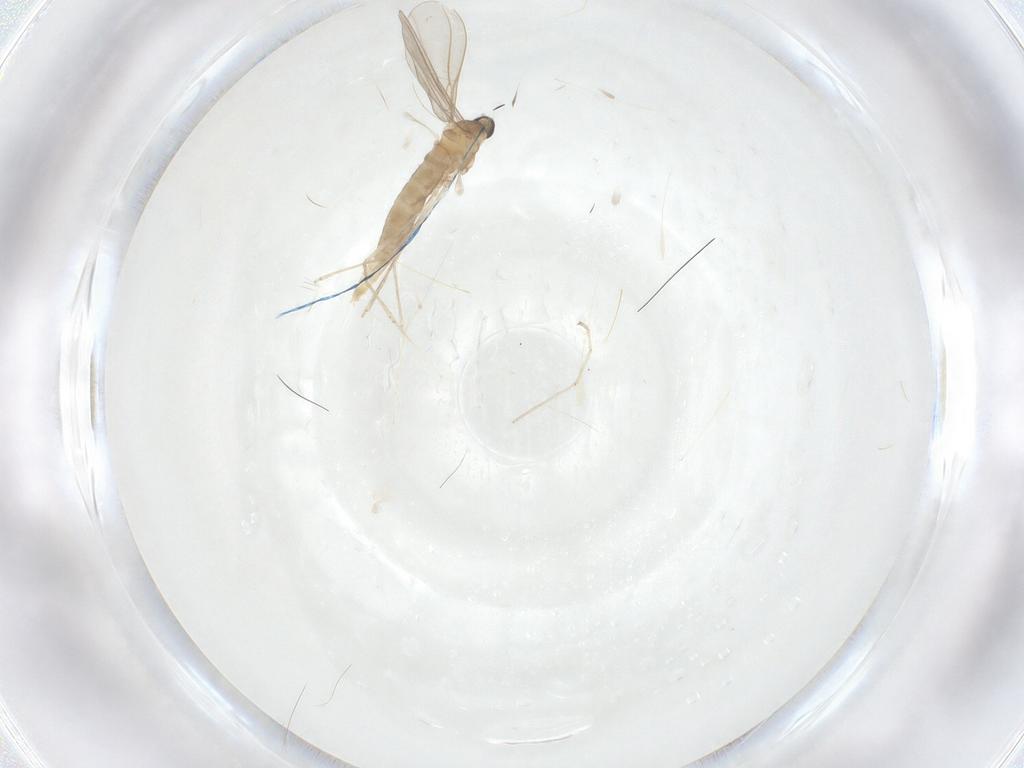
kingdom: Animalia
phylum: Arthropoda
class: Insecta
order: Diptera
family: Cecidomyiidae
